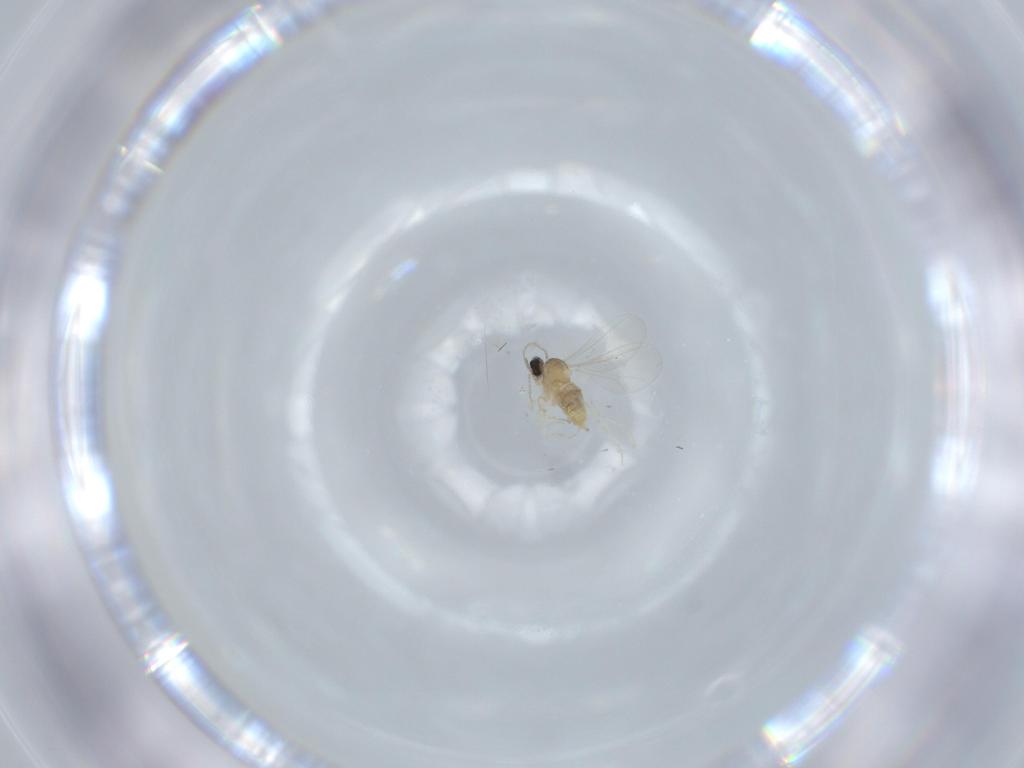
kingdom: Animalia
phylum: Arthropoda
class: Insecta
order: Diptera
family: Cecidomyiidae
